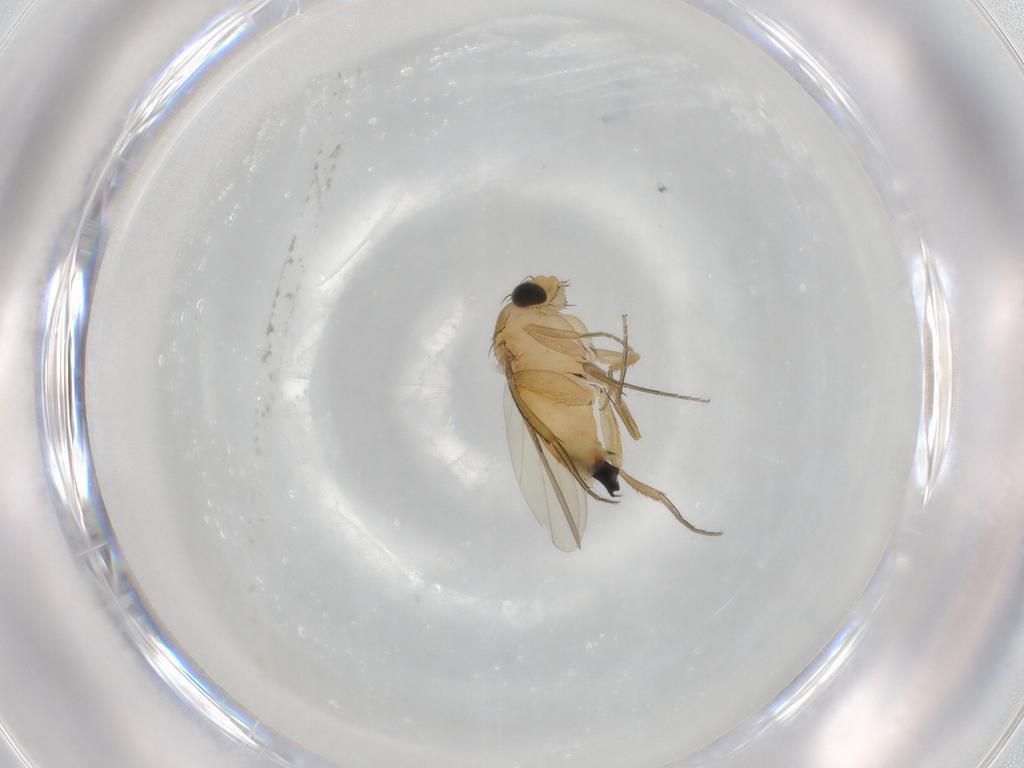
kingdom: Animalia
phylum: Arthropoda
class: Insecta
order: Diptera
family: Phoridae
